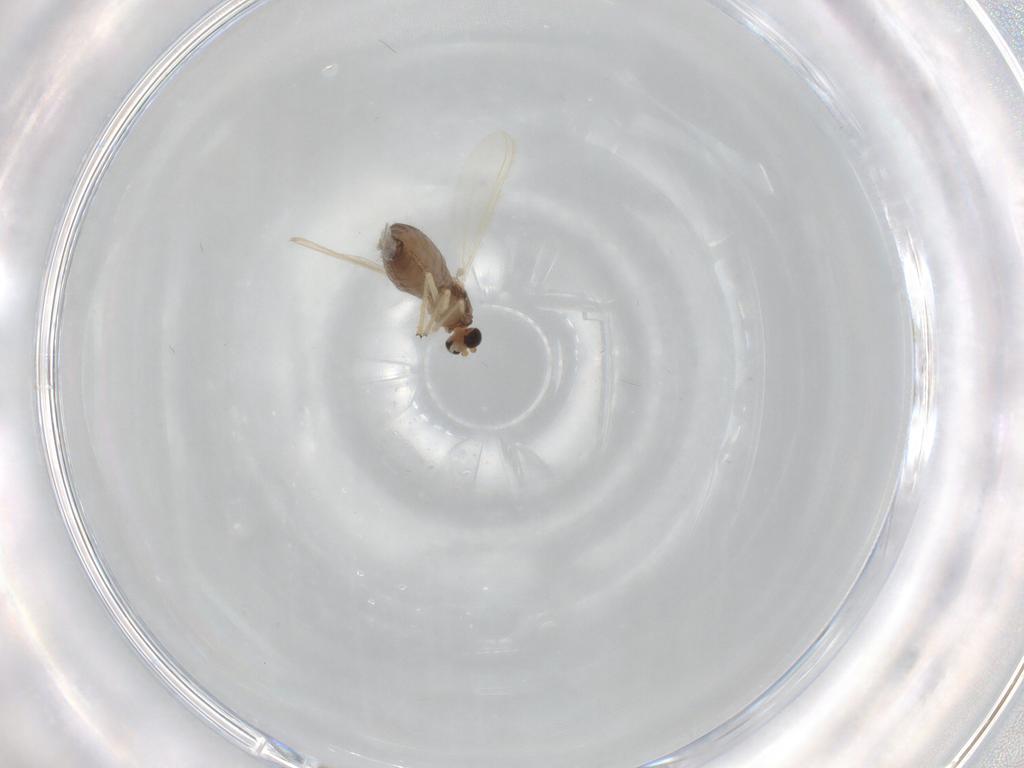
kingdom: Animalia
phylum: Arthropoda
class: Insecta
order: Diptera
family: Chironomidae
